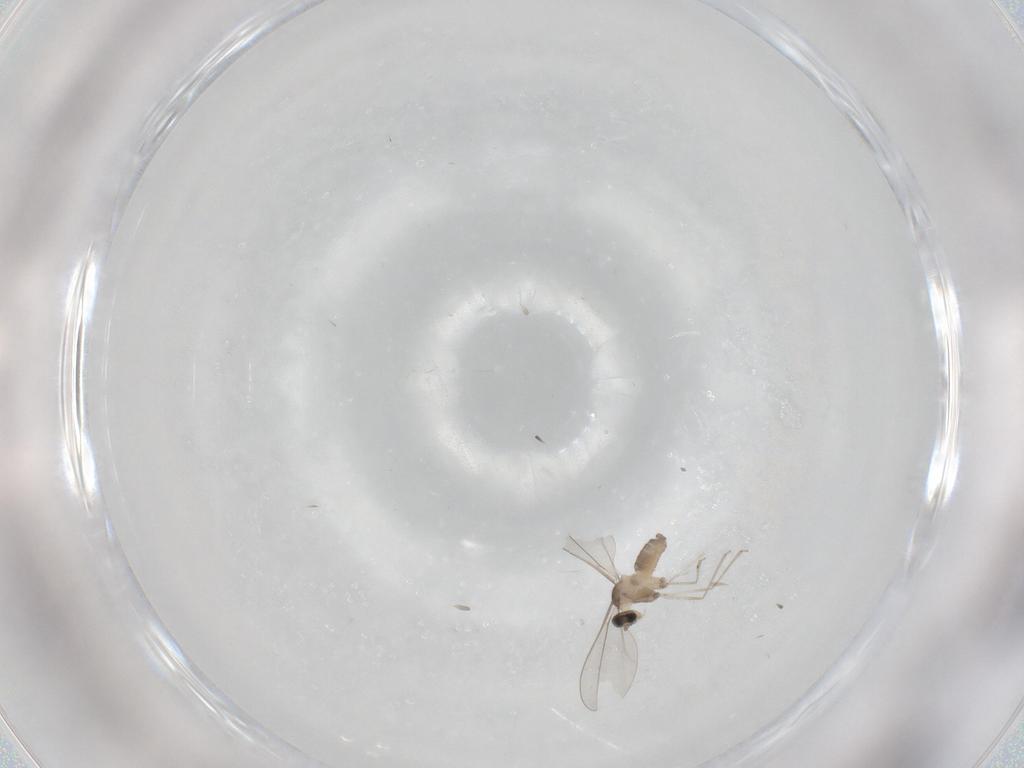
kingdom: Animalia
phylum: Arthropoda
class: Insecta
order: Diptera
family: Cecidomyiidae
